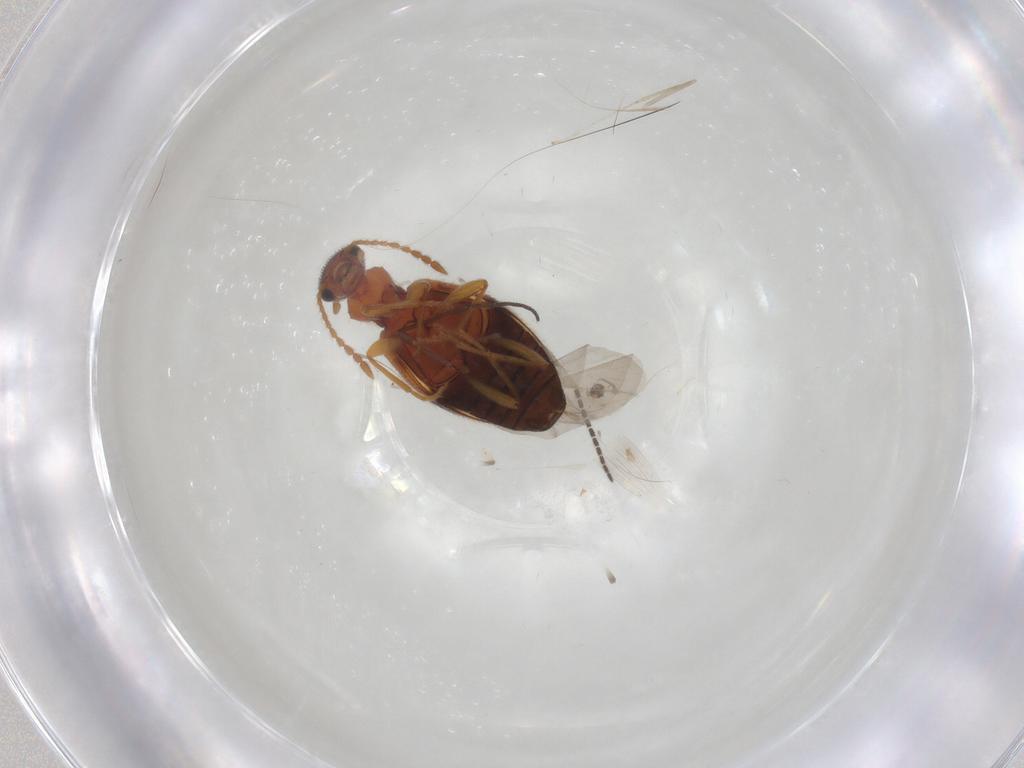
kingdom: Animalia
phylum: Arthropoda
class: Insecta
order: Coleoptera
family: Anthicidae
